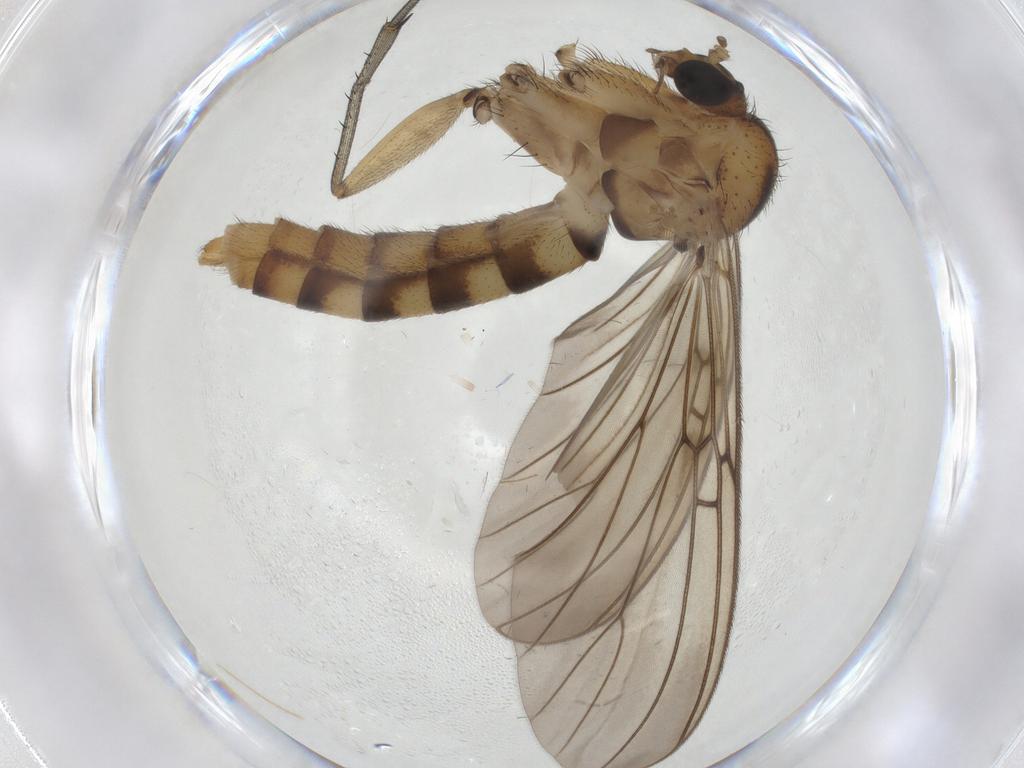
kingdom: Animalia
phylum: Arthropoda
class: Insecta
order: Diptera
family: Mycetophilidae
